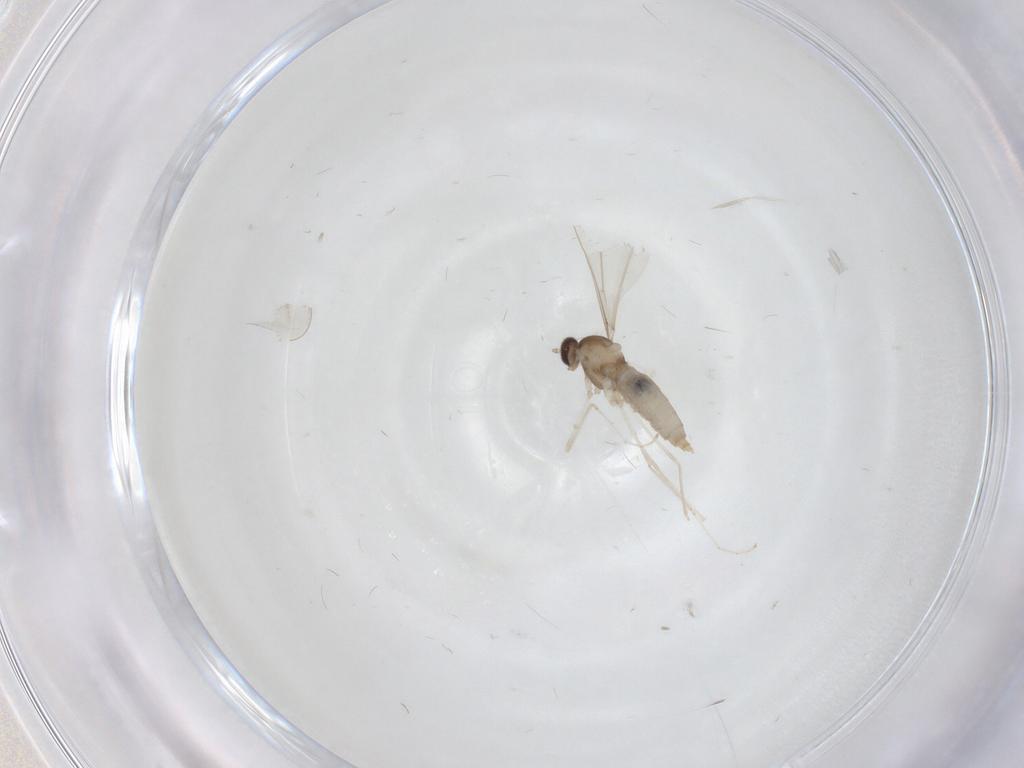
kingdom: Animalia
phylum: Arthropoda
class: Insecta
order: Diptera
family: Cecidomyiidae
